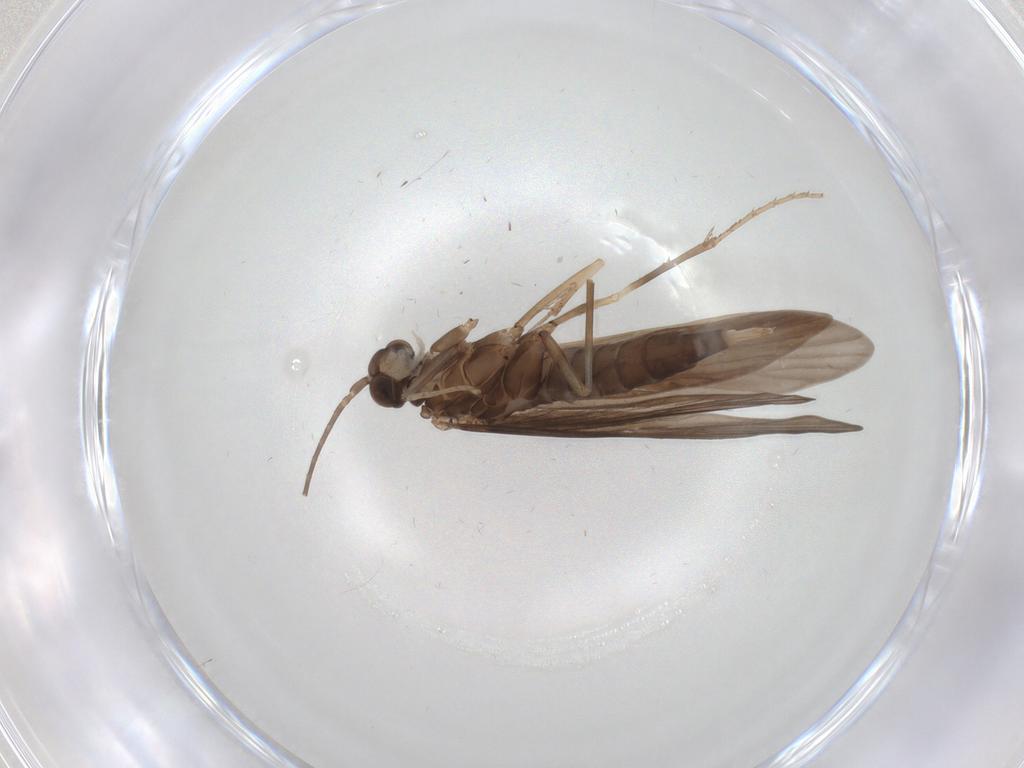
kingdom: Animalia
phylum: Arthropoda
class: Insecta
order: Trichoptera
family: Xiphocentronidae
